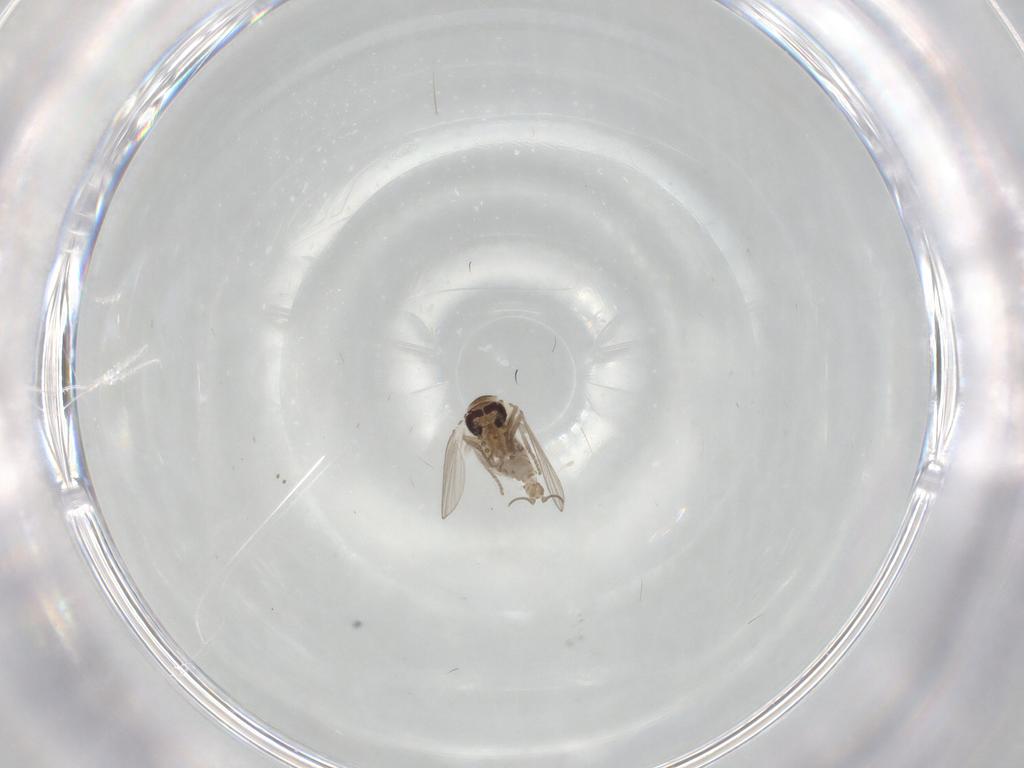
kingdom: Animalia
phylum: Arthropoda
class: Insecta
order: Diptera
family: Psychodidae
